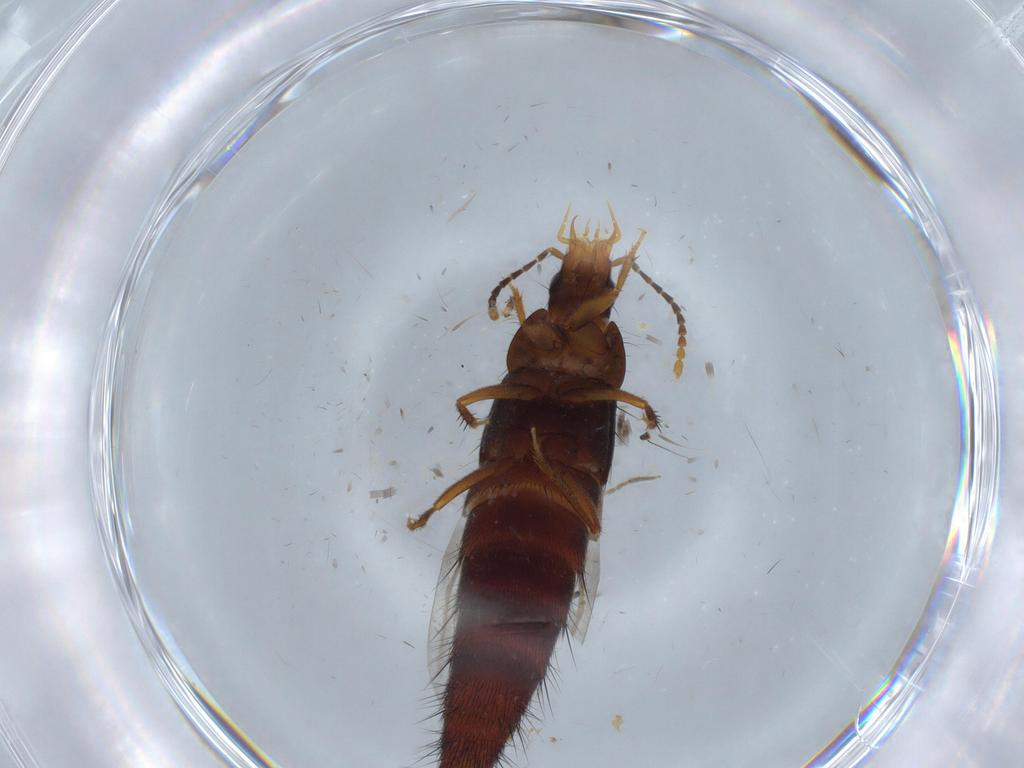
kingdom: Animalia
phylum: Arthropoda
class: Insecta
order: Coleoptera
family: Staphylinidae
